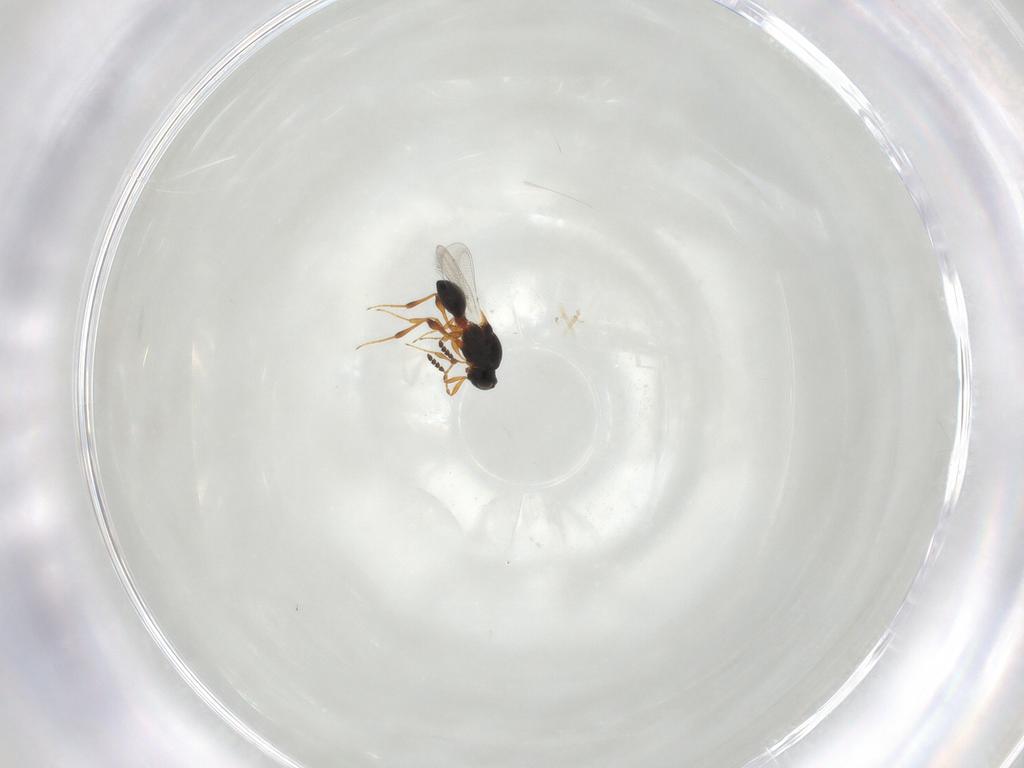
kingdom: Animalia
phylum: Arthropoda
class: Insecta
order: Hymenoptera
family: Platygastridae
